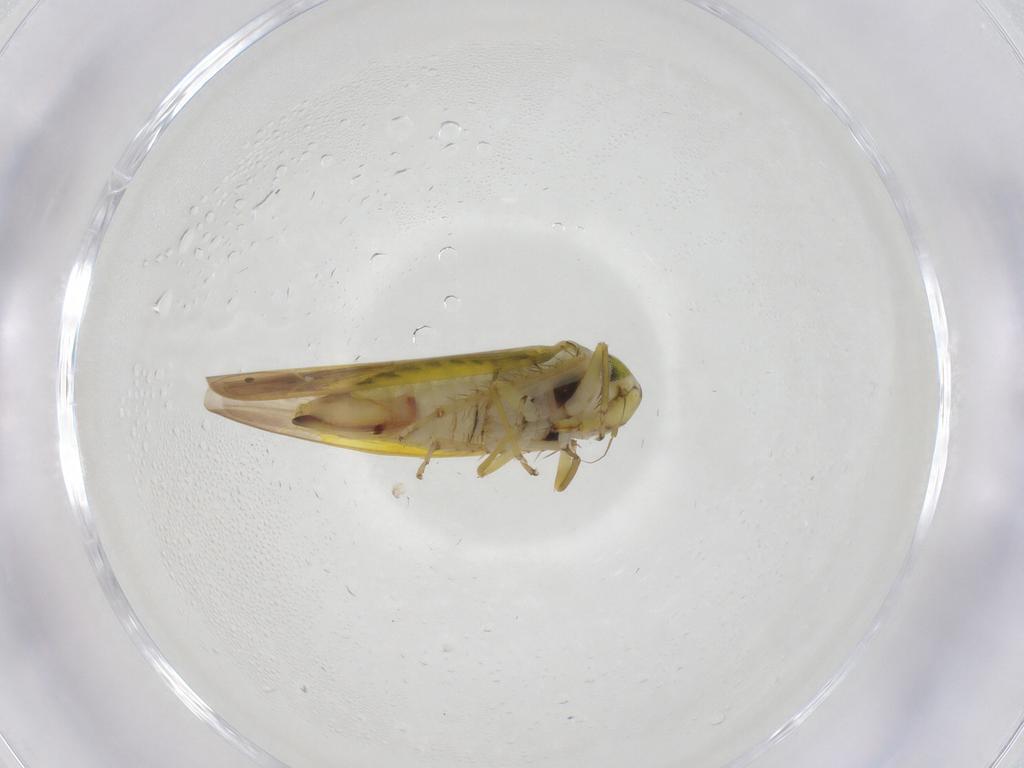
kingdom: Animalia
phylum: Arthropoda
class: Insecta
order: Hemiptera
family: Cicadellidae
